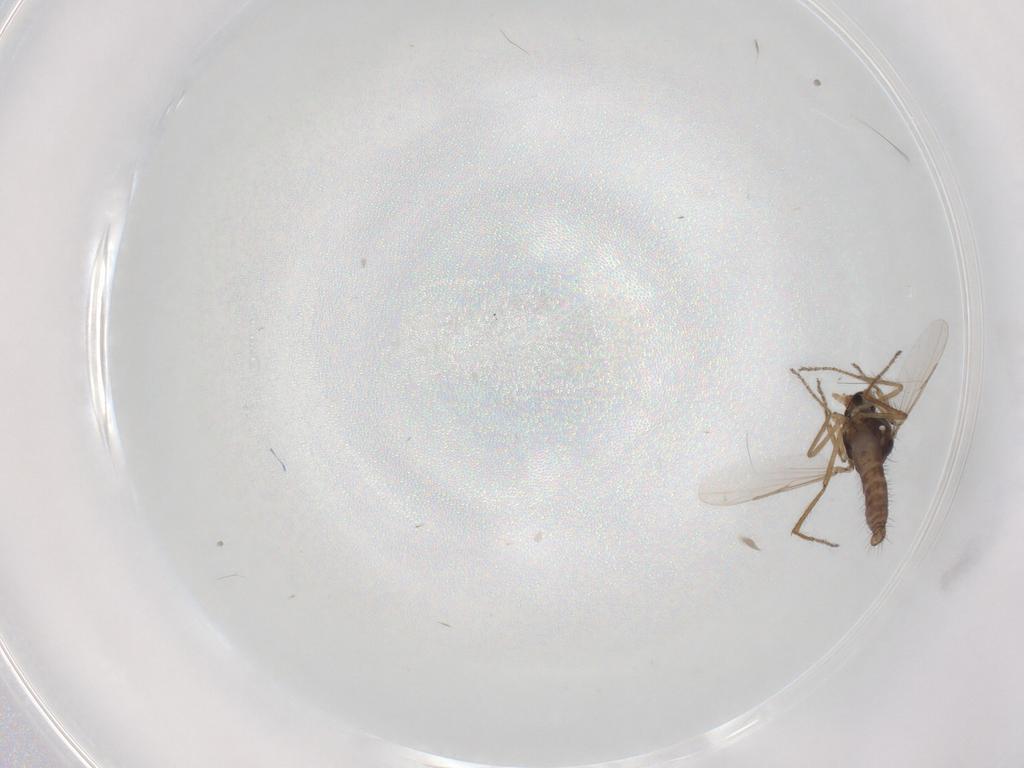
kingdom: Animalia
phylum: Arthropoda
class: Insecta
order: Diptera
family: Ceratopogonidae
